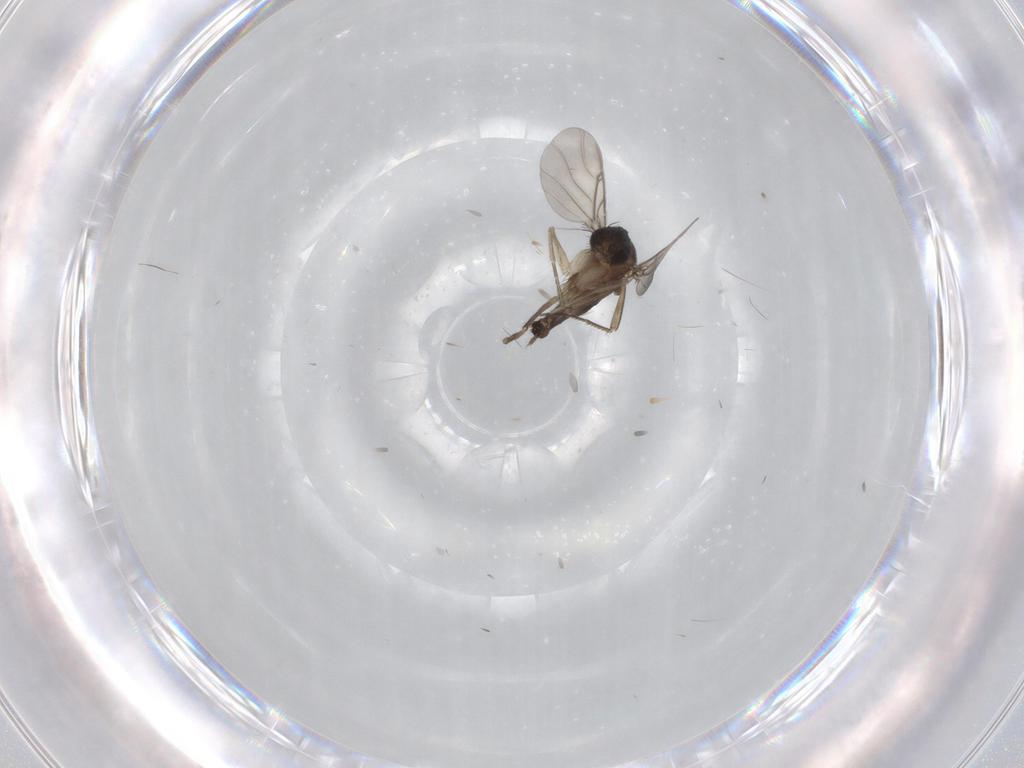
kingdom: Animalia
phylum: Arthropoda
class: Insecta
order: Diptera
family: Phoridae
